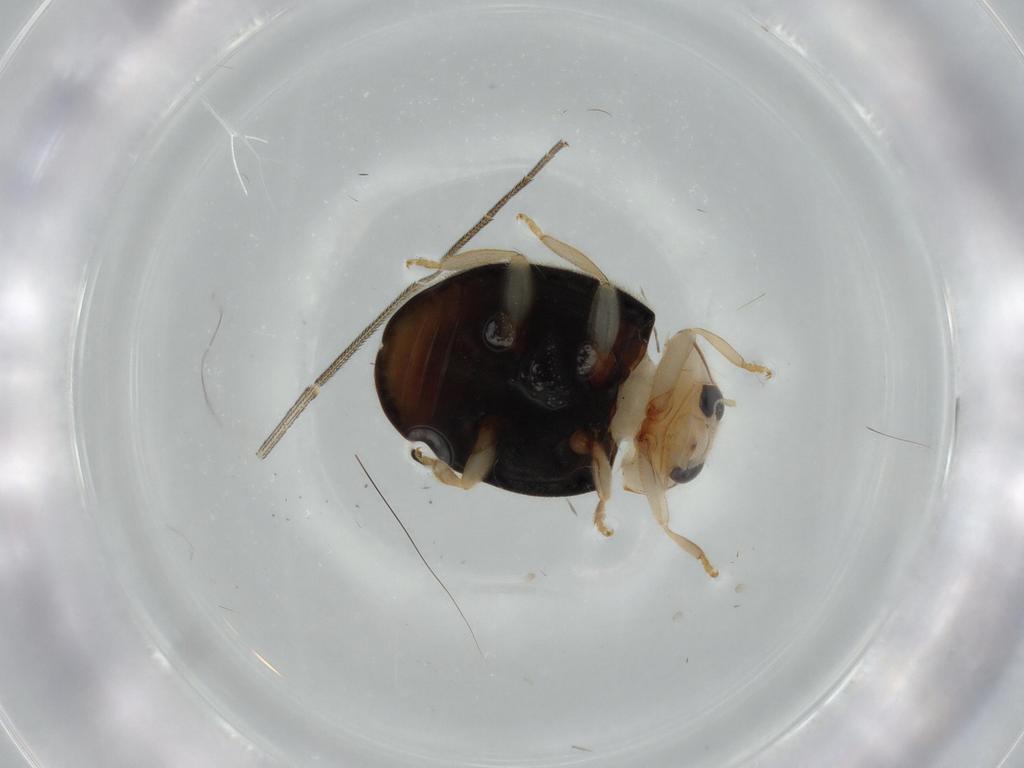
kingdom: Animalia
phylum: Arthropoda
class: Insecta
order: Coleoptera
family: Coccinellidae
